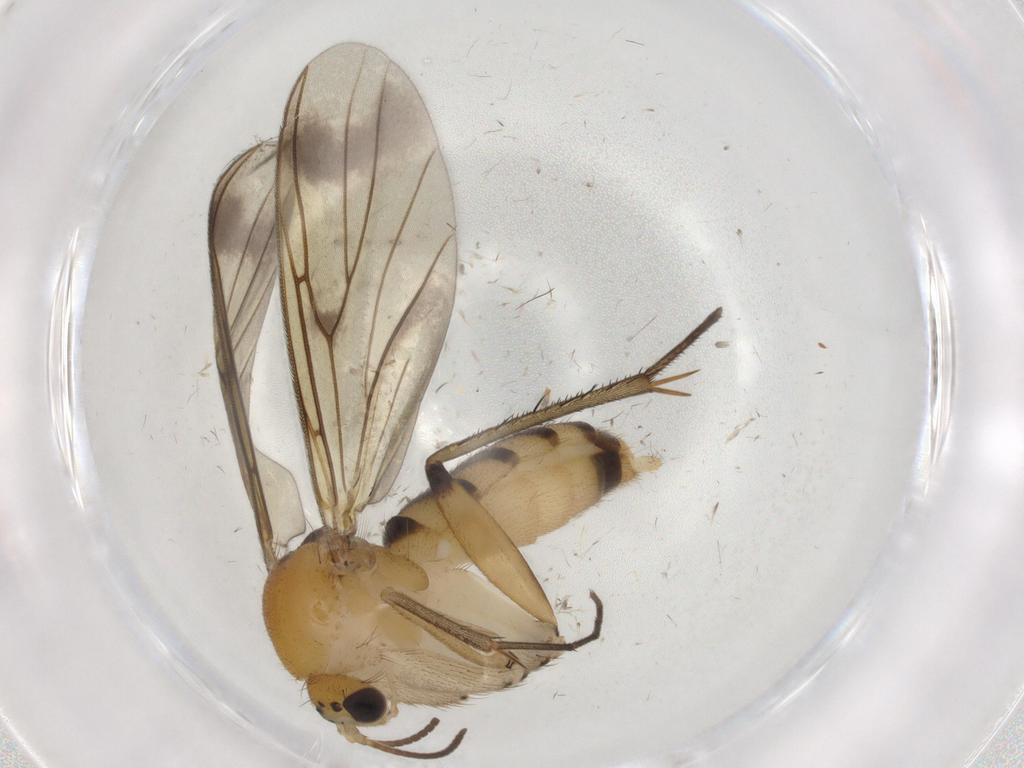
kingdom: Animalia
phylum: Arthropoda
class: Insecta
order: Diptera
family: Mycetophilidae
